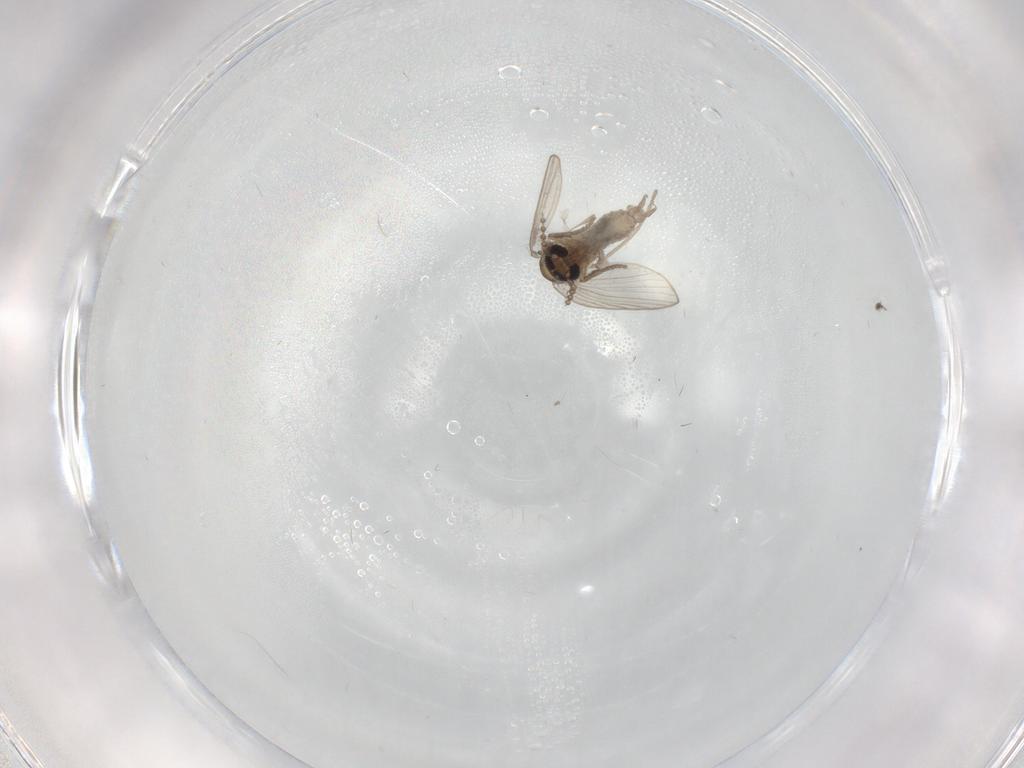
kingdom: Animalia
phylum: Arthropoda
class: Insecta
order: Diptera
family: Psychodidae
